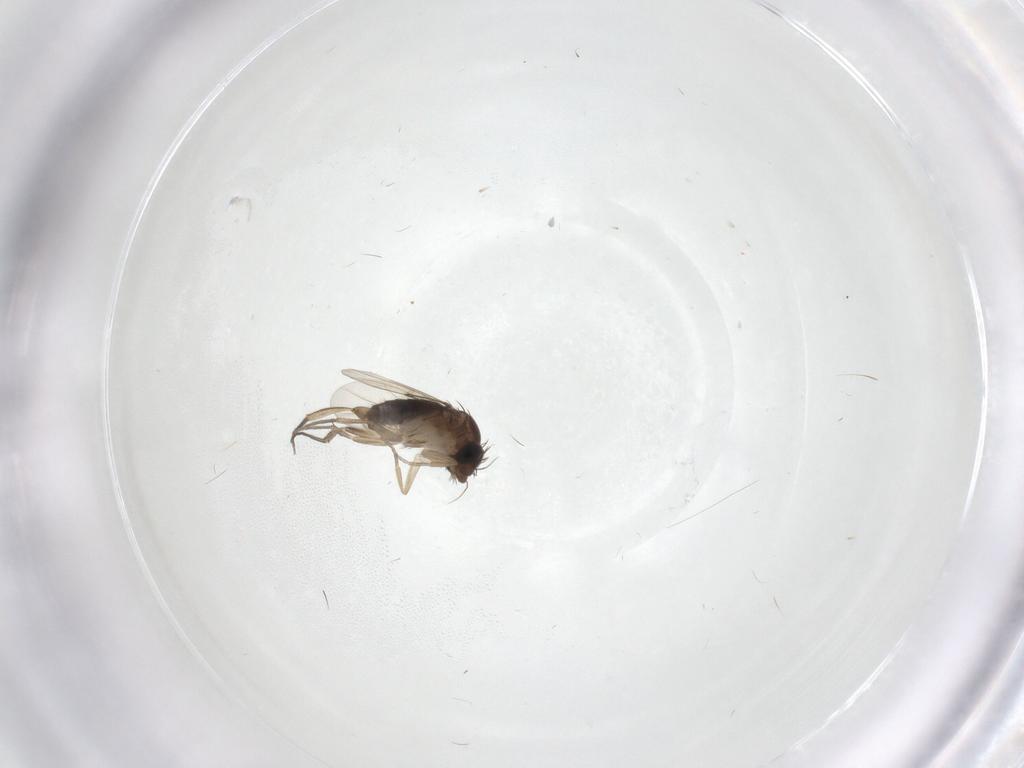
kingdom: Animalia
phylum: Arthropoda
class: Insecta
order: Diptera
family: Phoridae
